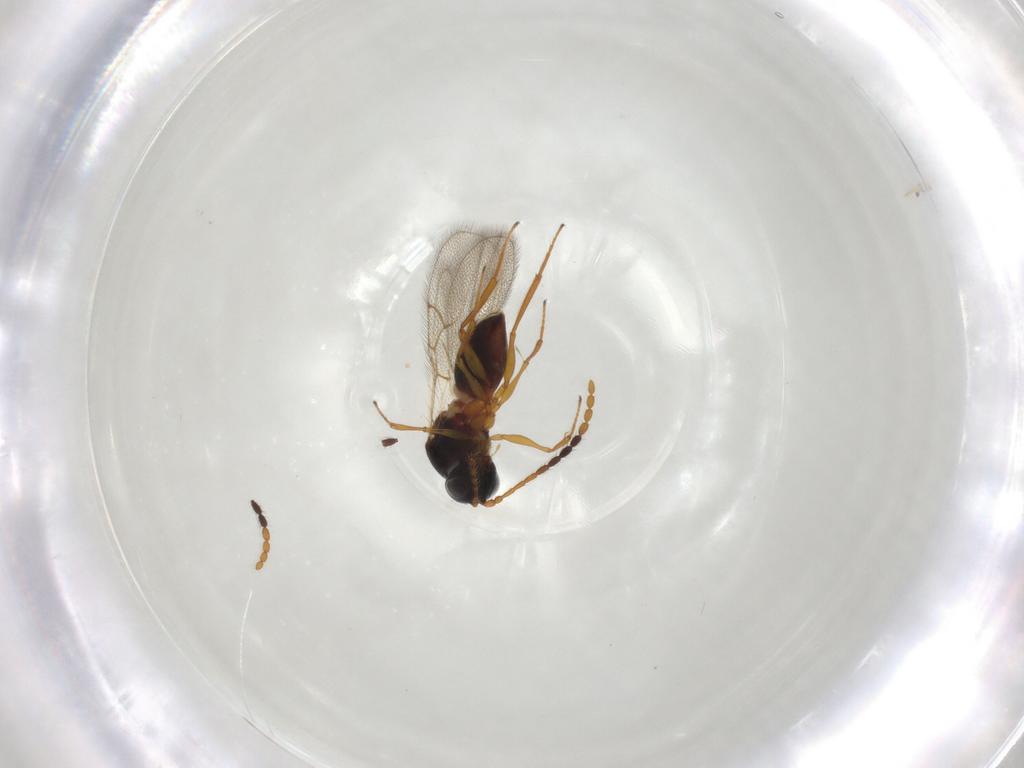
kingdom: Animalia
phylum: Arthropoda
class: Insecta
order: Hymenoptera
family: Figitidae
